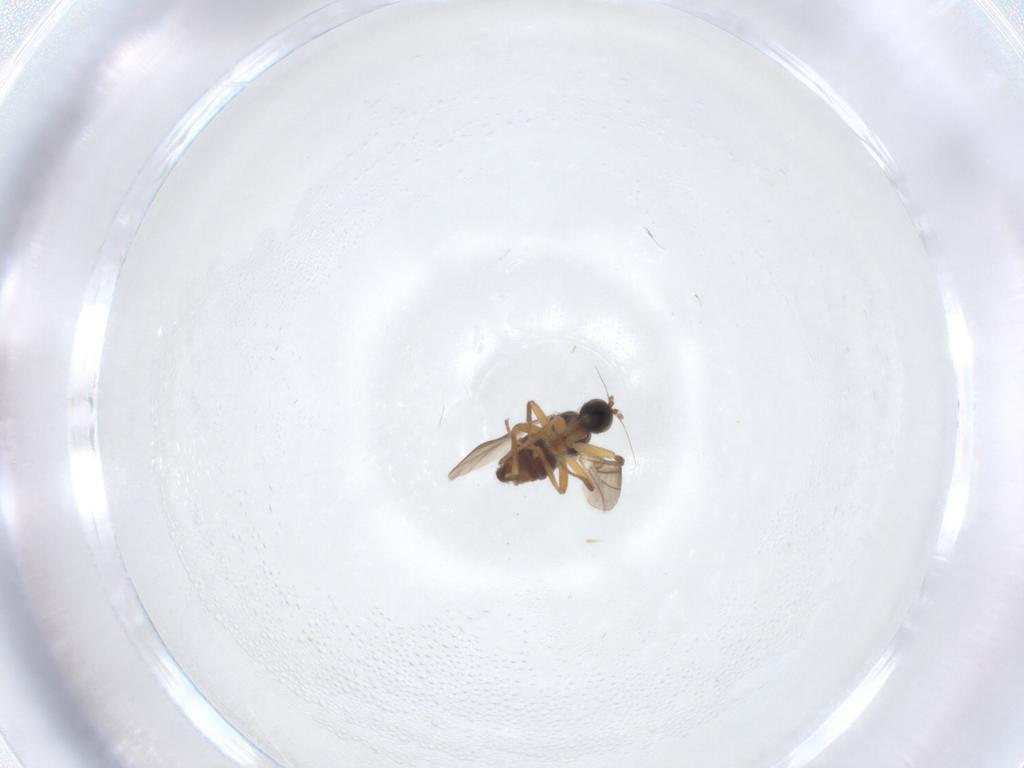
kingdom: Animalia
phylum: Arthropoda
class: Insecta
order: Diptera
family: Hybotidae
